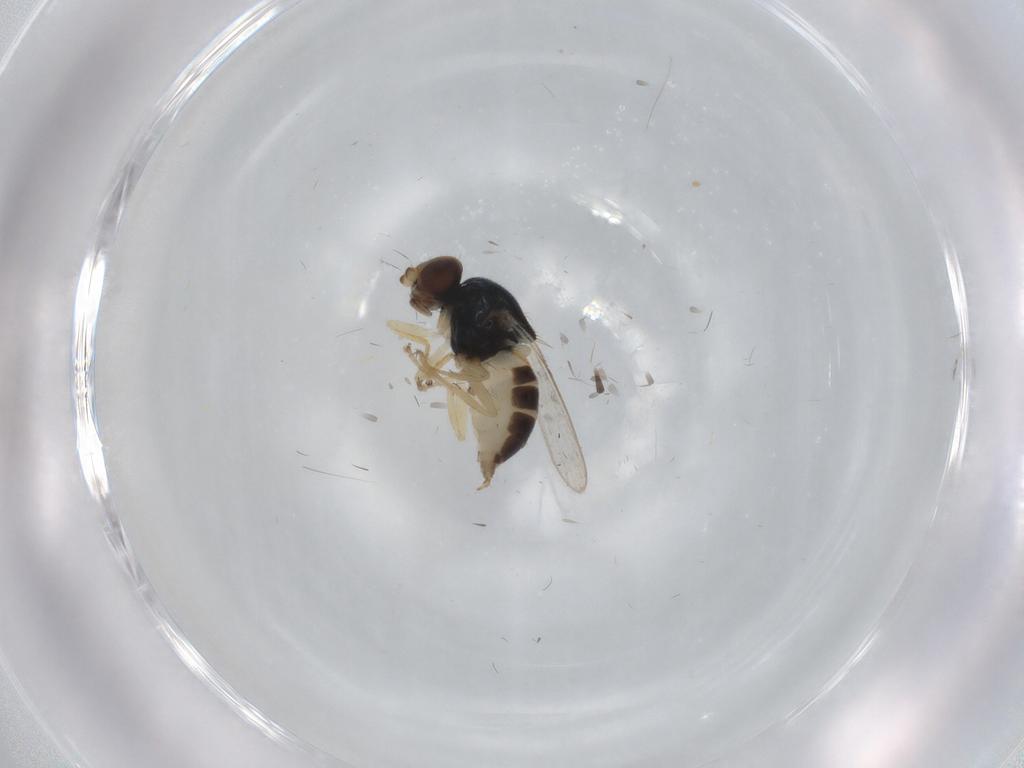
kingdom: Animalia
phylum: Arthropoda
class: Insecta
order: Diptera
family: Chloropidae
